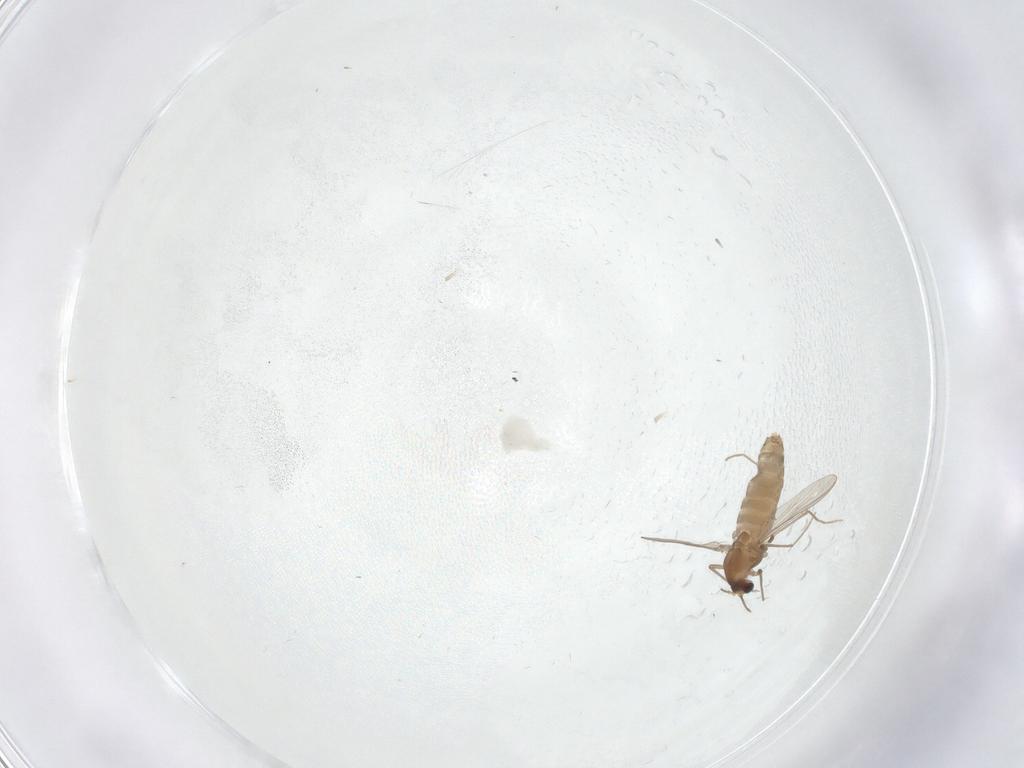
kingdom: Animalia
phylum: Arthropoda
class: Insecta
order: Diptera
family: Chironomidae
